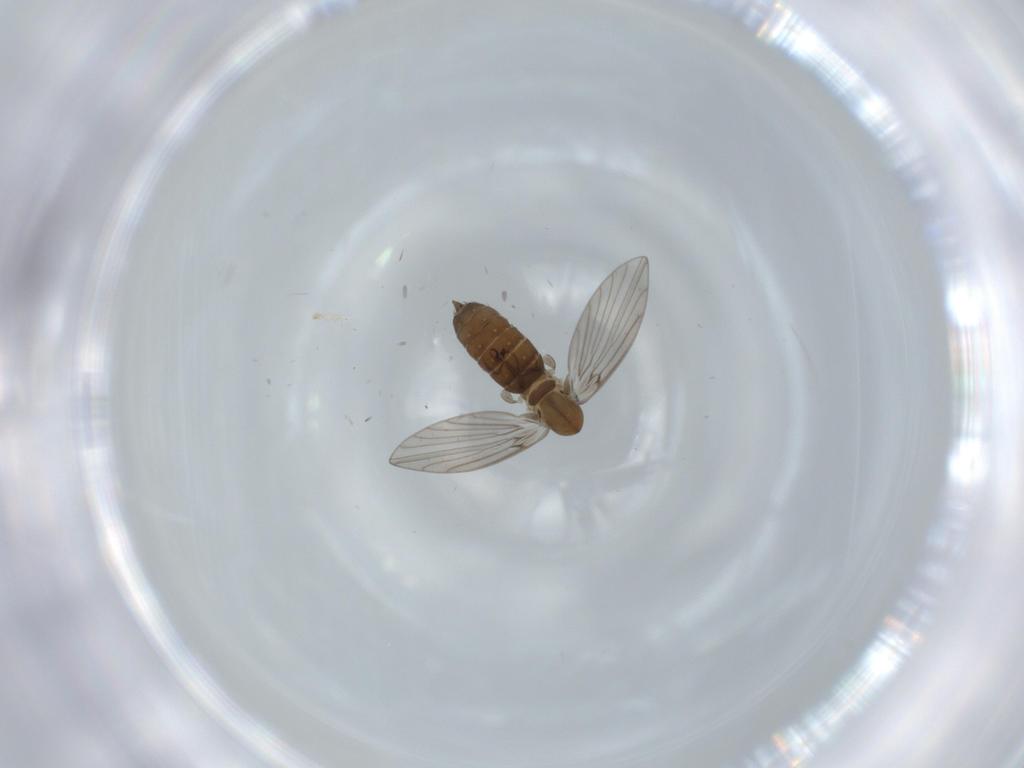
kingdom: Animalia
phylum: Arthropoda
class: Insecta
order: Diptera
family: Psychodidae
